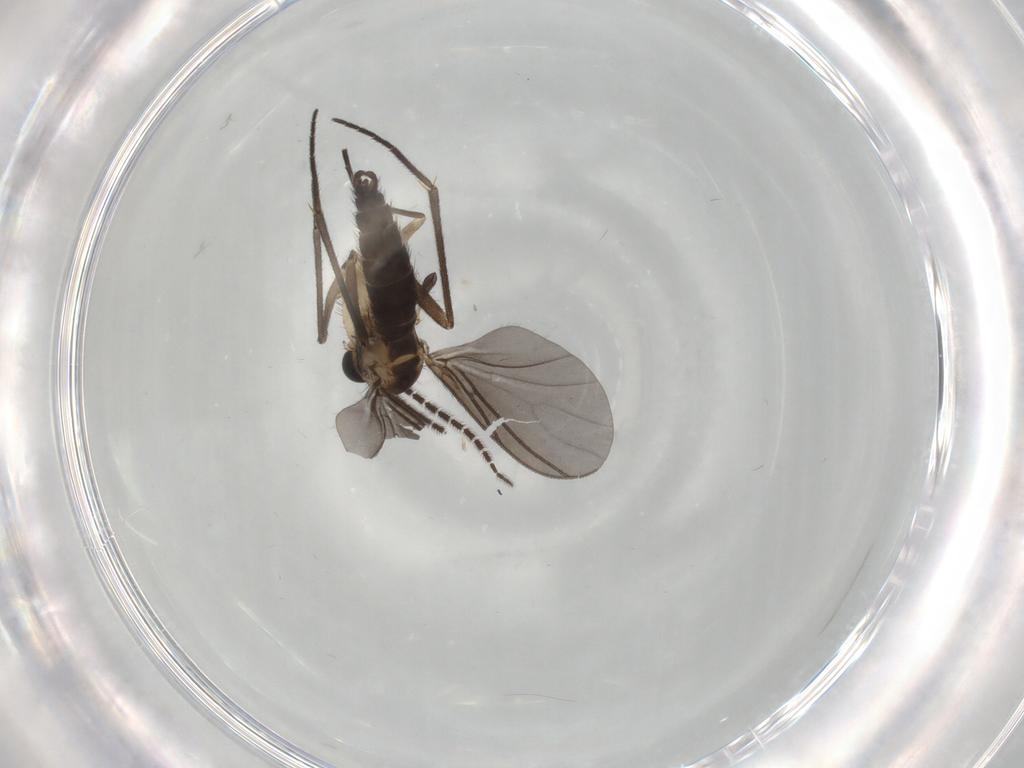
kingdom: Animalia
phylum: Arthropoda
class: Insecta
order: Diptera
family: Sciaridae
